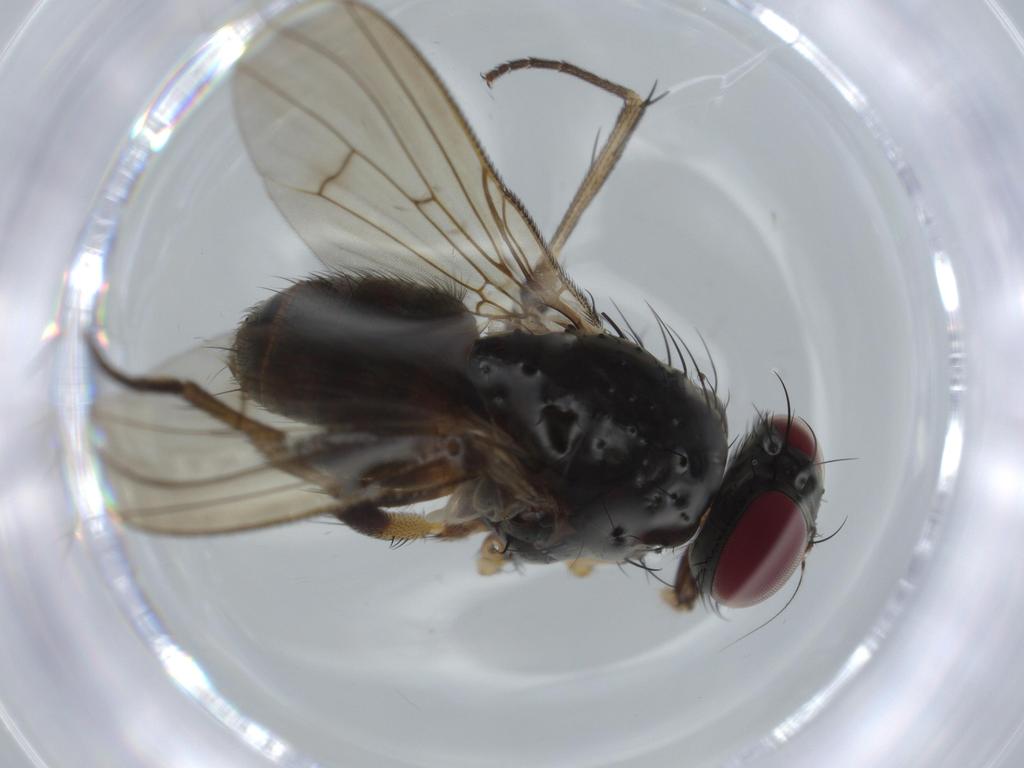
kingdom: Animalia
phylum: Arthropoda
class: Insecta
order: Diptera
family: Muscidae
